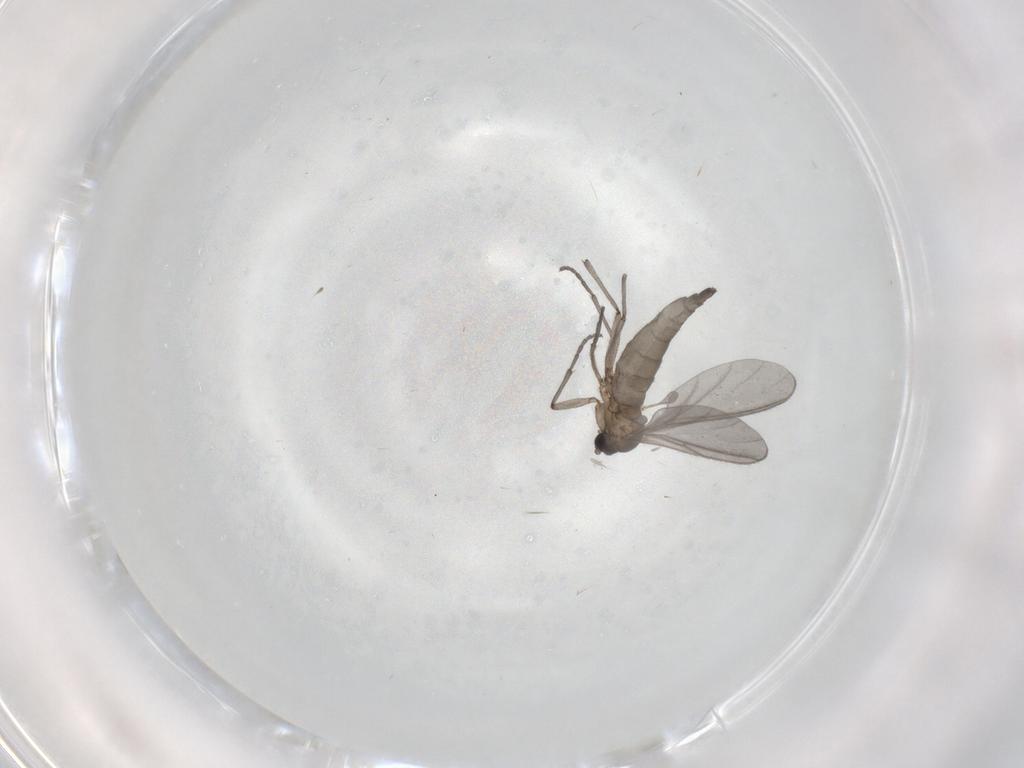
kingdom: Animalia
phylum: Arthropoda
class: Insecta
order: Diptera
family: Sciaridae
